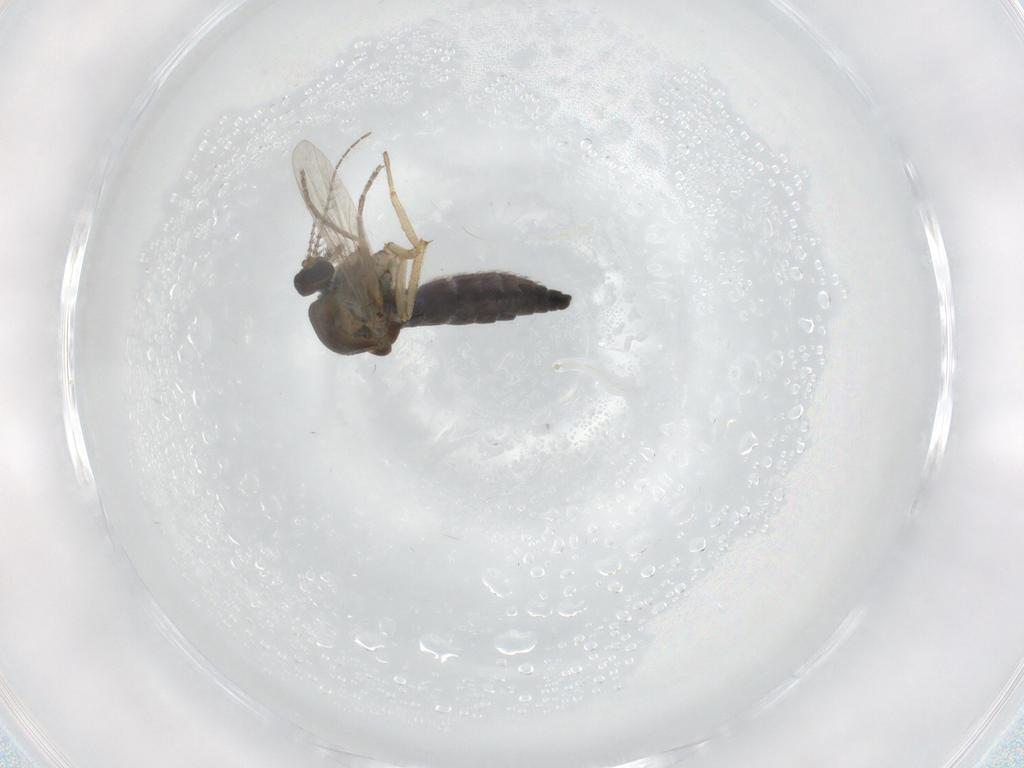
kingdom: Animalia
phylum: Arthropoda
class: Insecta
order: Diptera
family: Ceratopogonidae
